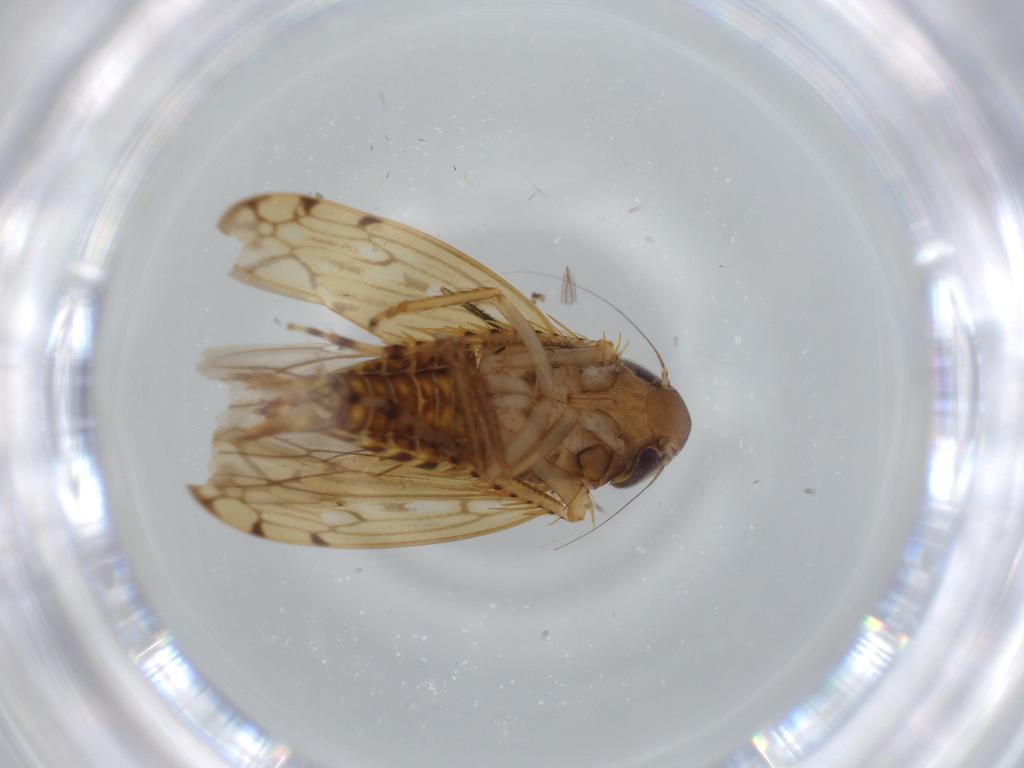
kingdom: Animalia
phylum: Arthropoda
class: Insecta
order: Hemiptera
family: Cicadellidae
